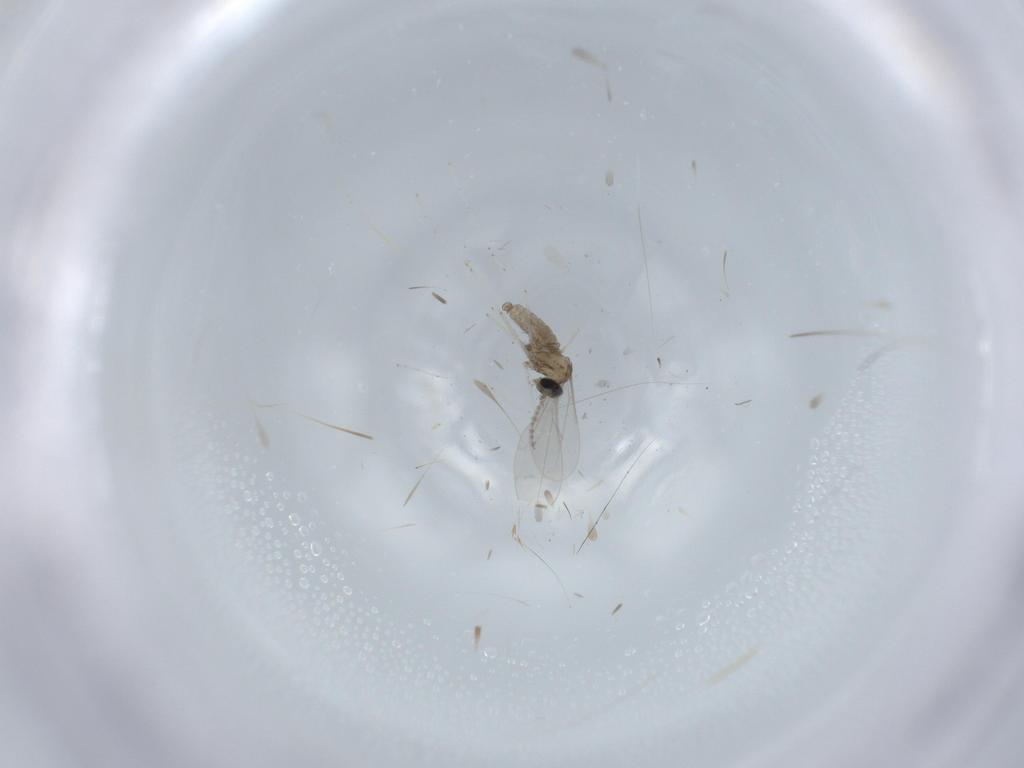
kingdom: Animalia
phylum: Arthropoda
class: Insecta
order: Diptera
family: Cecidomyiidae
